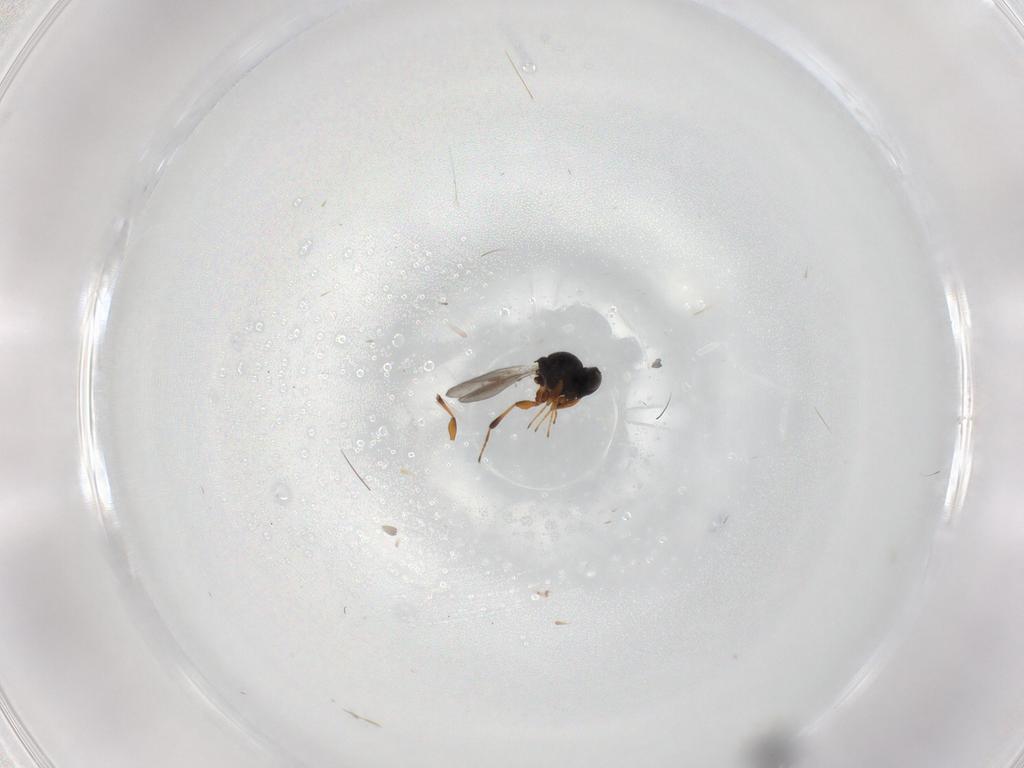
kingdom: Animalia
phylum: Arthropoda
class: Insecta
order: Hymenoptera
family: Platygastridae
